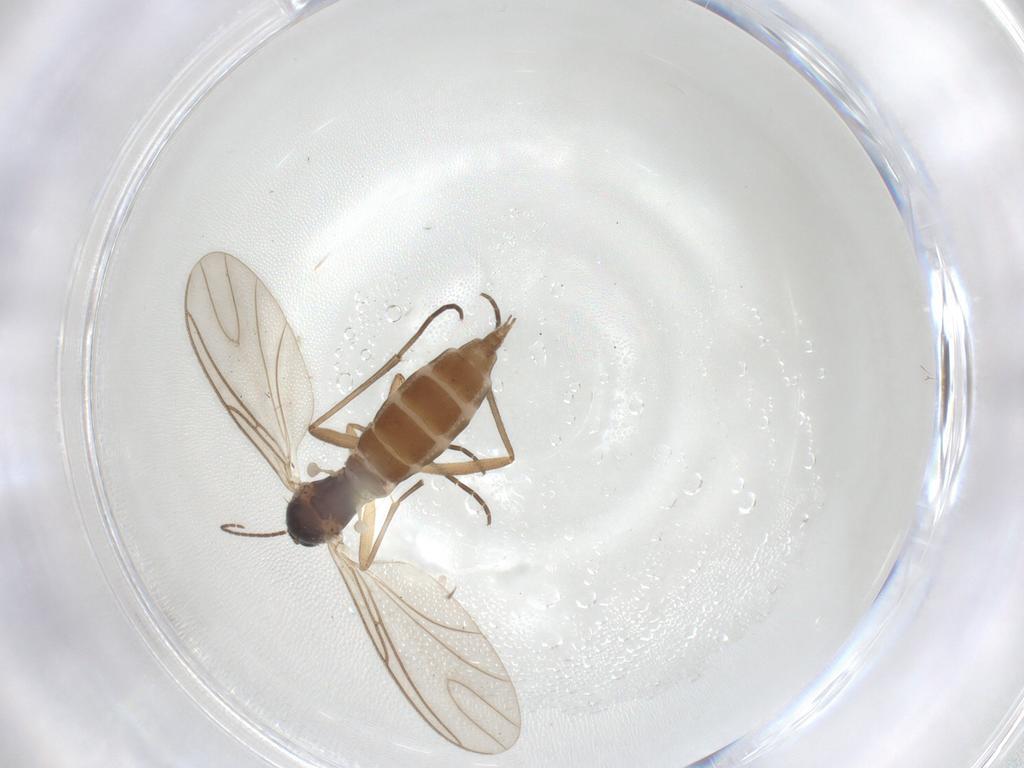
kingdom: Animalia
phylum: Arthropoda
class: Insecta
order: Diptera
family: Sciaridae
